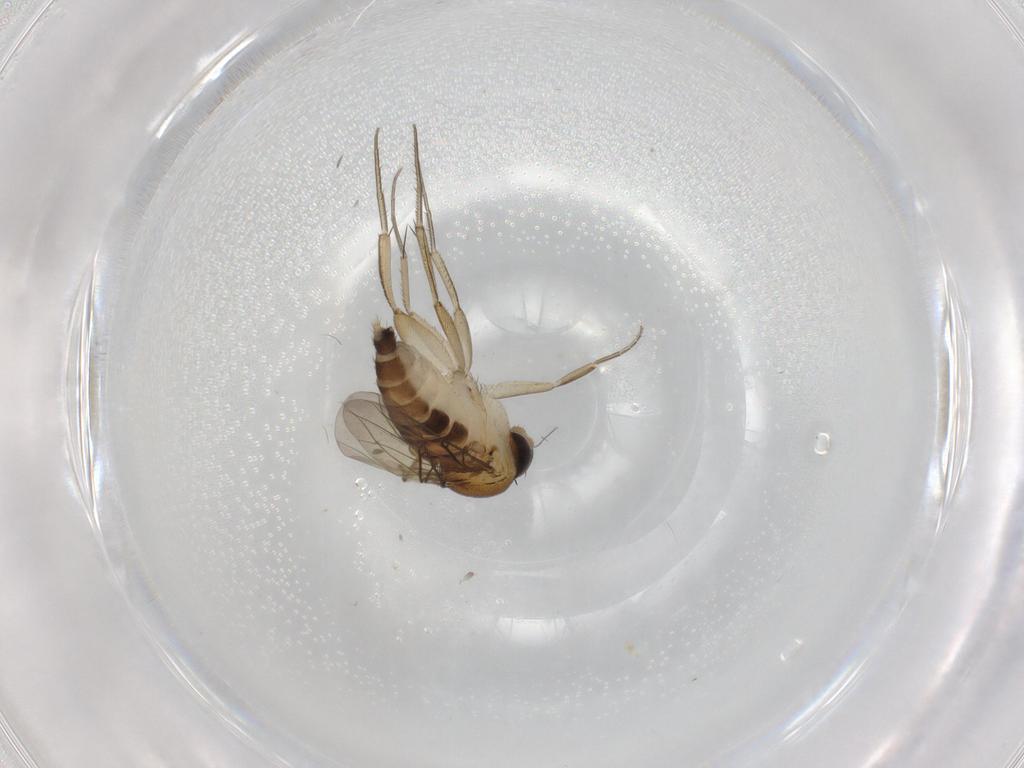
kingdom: Animalia
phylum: Arthropoda
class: Insecta
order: Diptera
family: Phoridae
